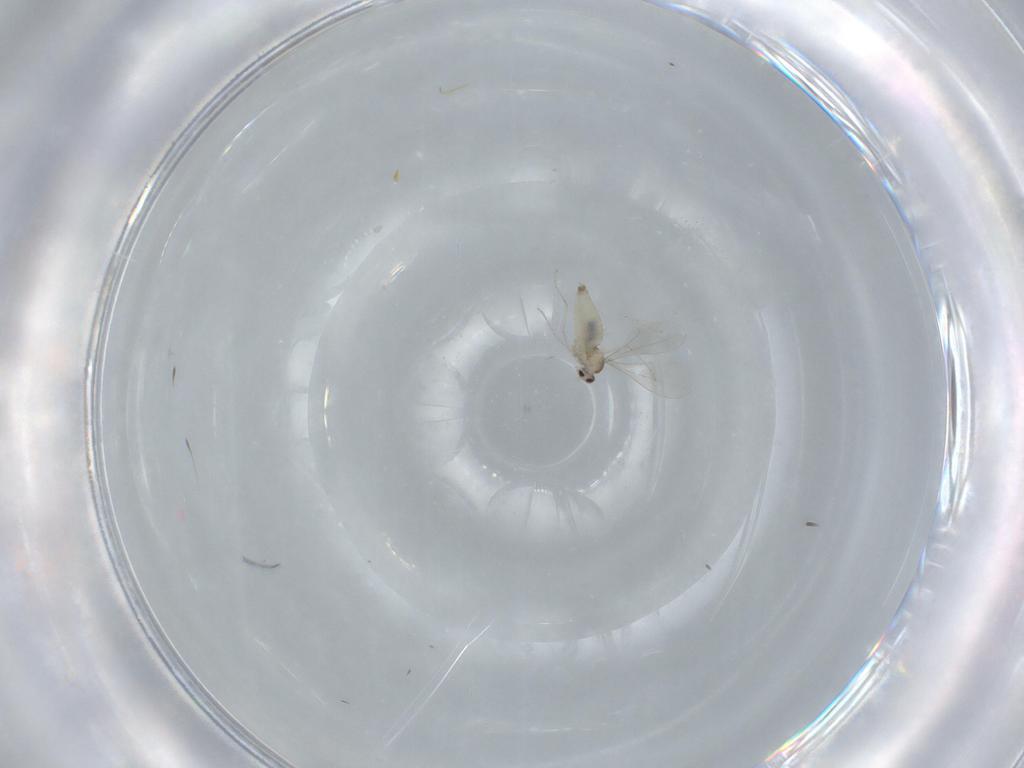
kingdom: Animalia
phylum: Arthropoda
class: Insecta
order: Diptera
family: Cecidomyiidae
